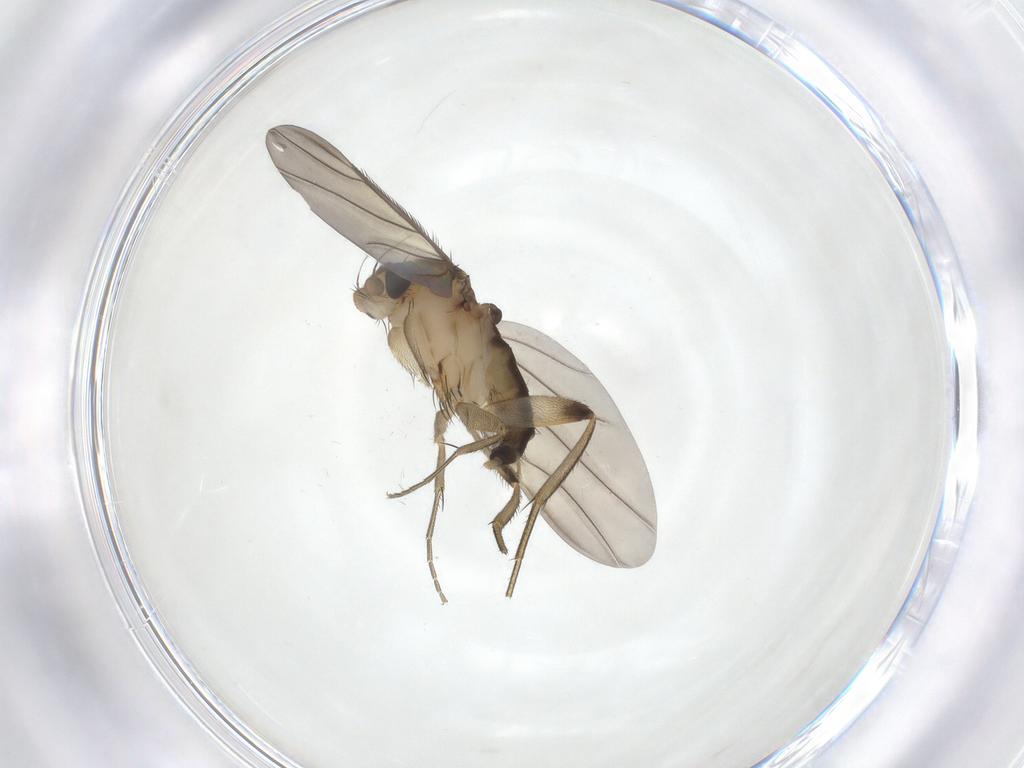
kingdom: Animalia
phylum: Arthropoda
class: Insecta
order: Diptera
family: Phoridae
